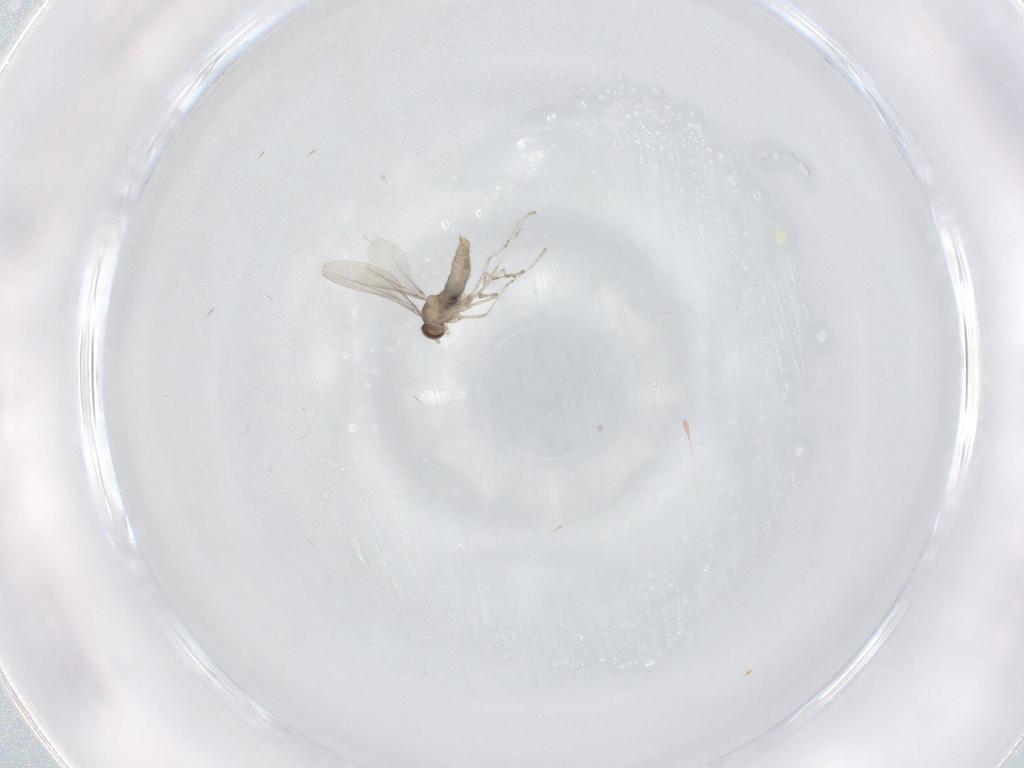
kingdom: Animalia
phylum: Arthropoda
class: Insecta
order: Diptera
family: Cecidomyiidae
